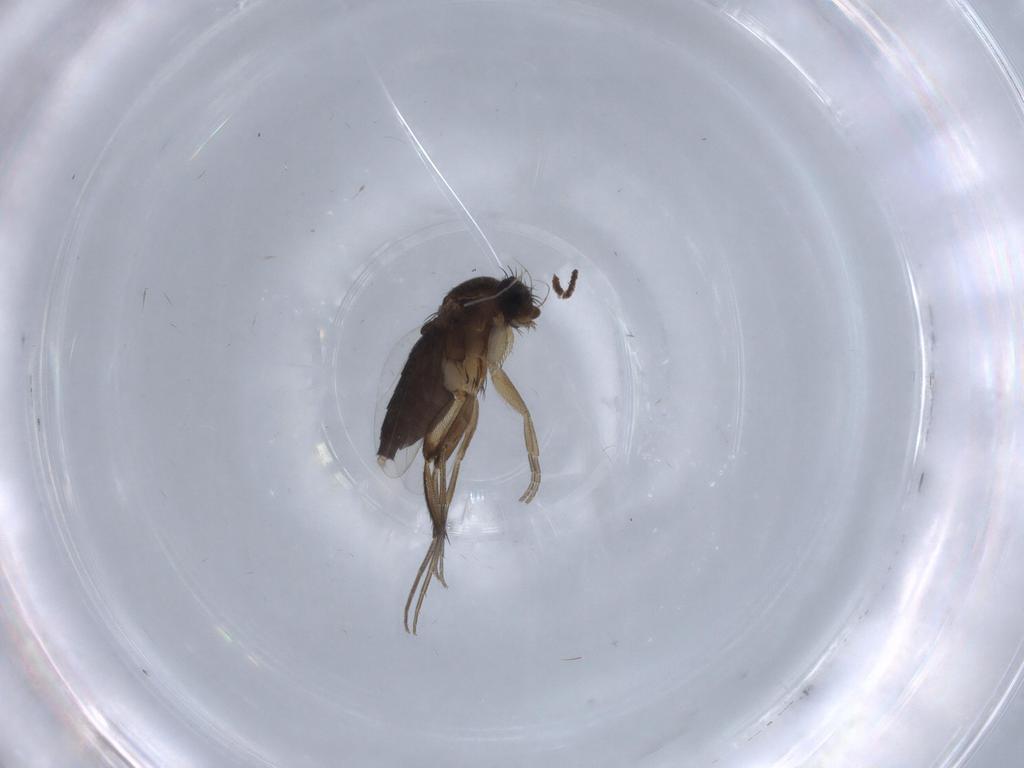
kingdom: Animalia
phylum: Arthropoda
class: Insecta
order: Diptera
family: Phoridae
